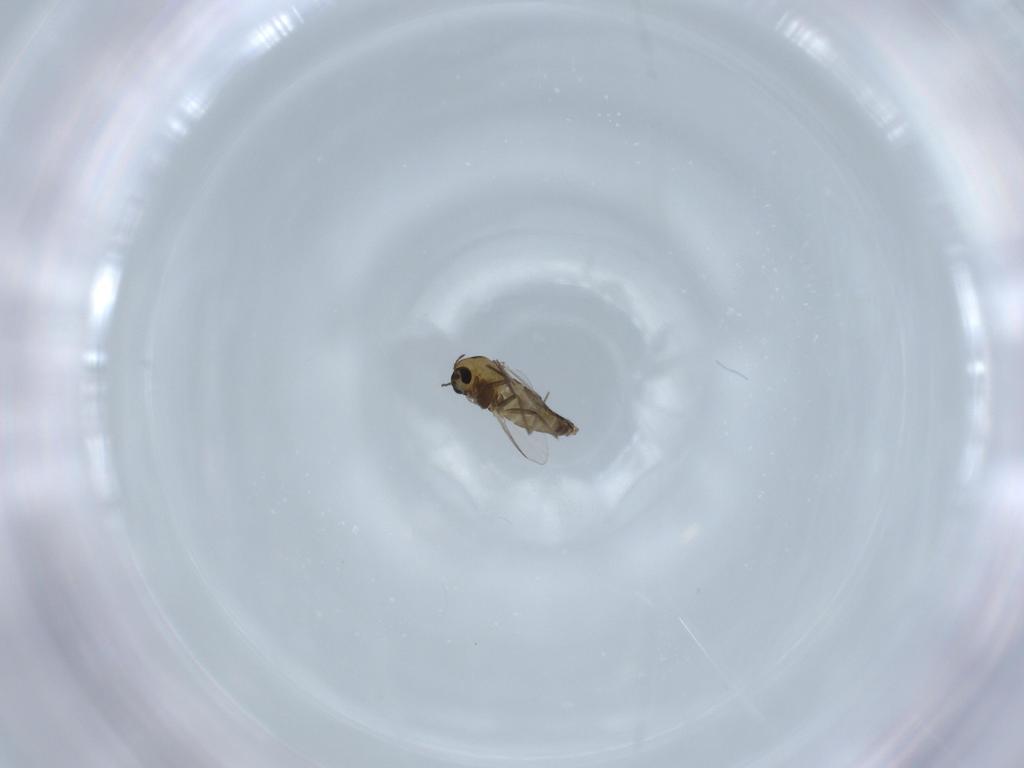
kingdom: Animalia
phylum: Arthropoda
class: Insecta
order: Diptera
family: Chironomidae
